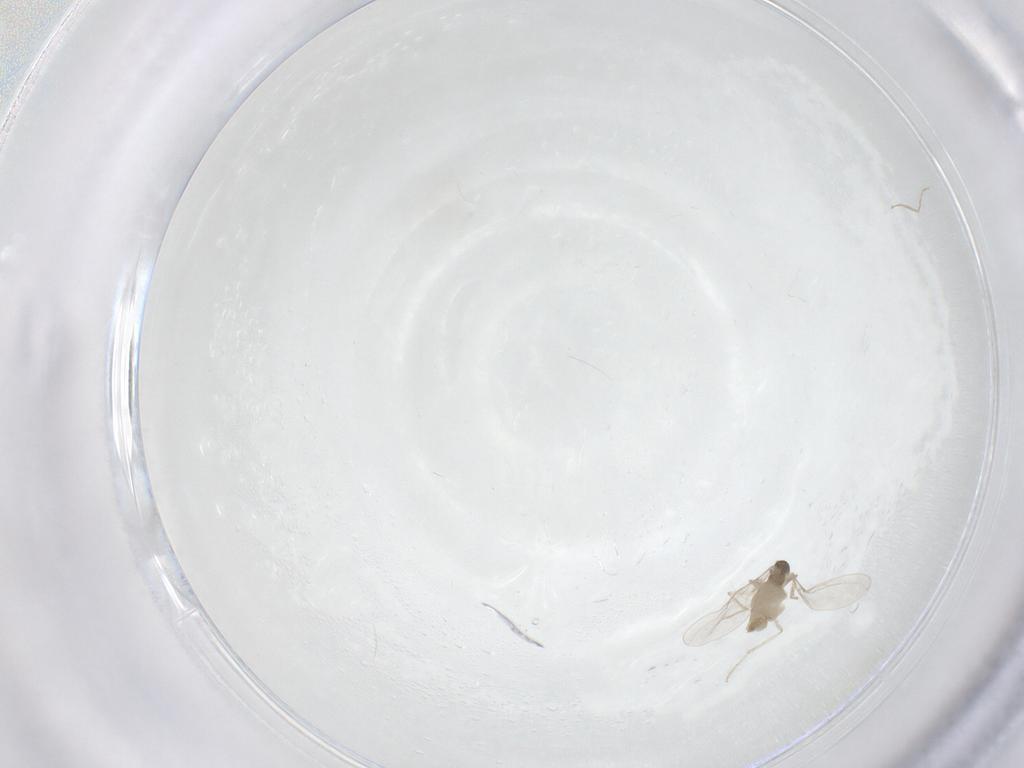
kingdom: Animalia
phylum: Arthropoda
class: Insecta
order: Diptera
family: Cecidomyiidae
